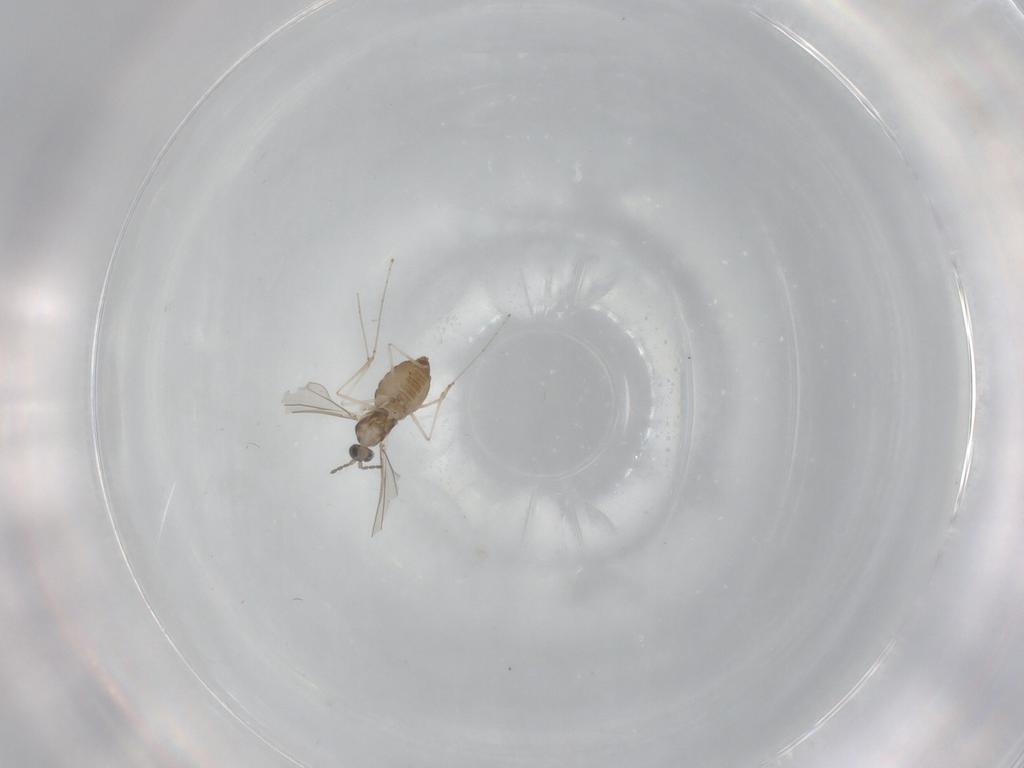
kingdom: Animalia
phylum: Arthropoda
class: Insecta
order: Diptera
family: Cecidomyiidae
